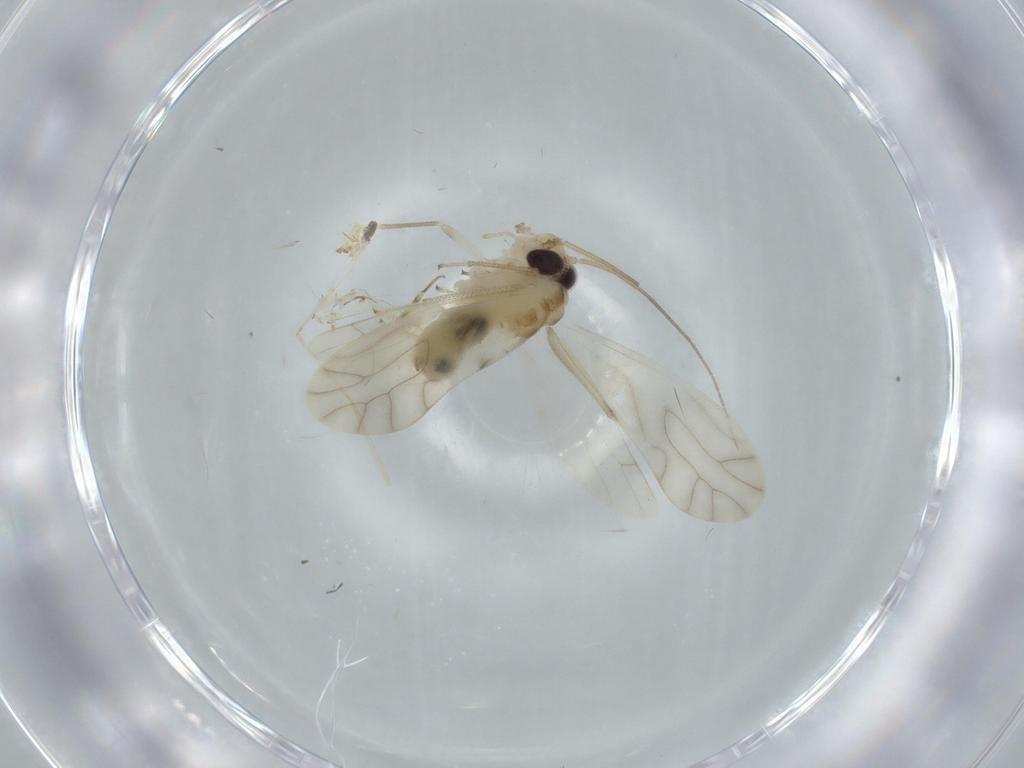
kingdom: Animalia
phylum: Arthropoda
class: Insecta
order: Psocodea
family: Caeciliusidae
